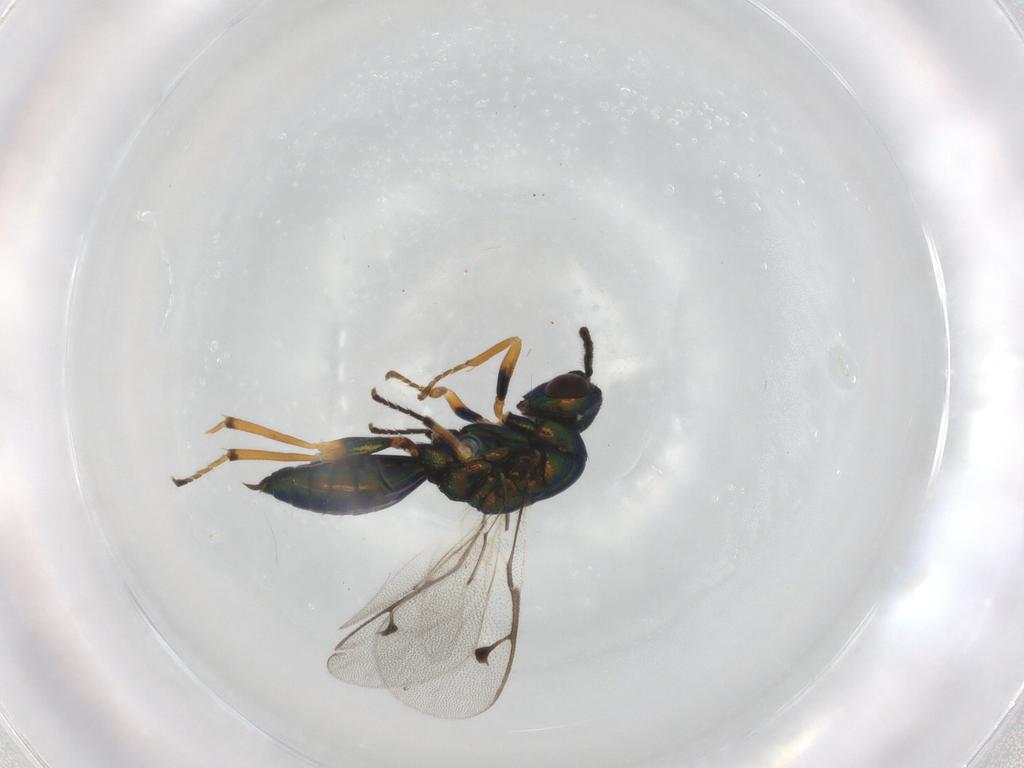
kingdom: Animalia
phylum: Arthropoda
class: Insecta
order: Hymenoptera
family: Pteromalidae
